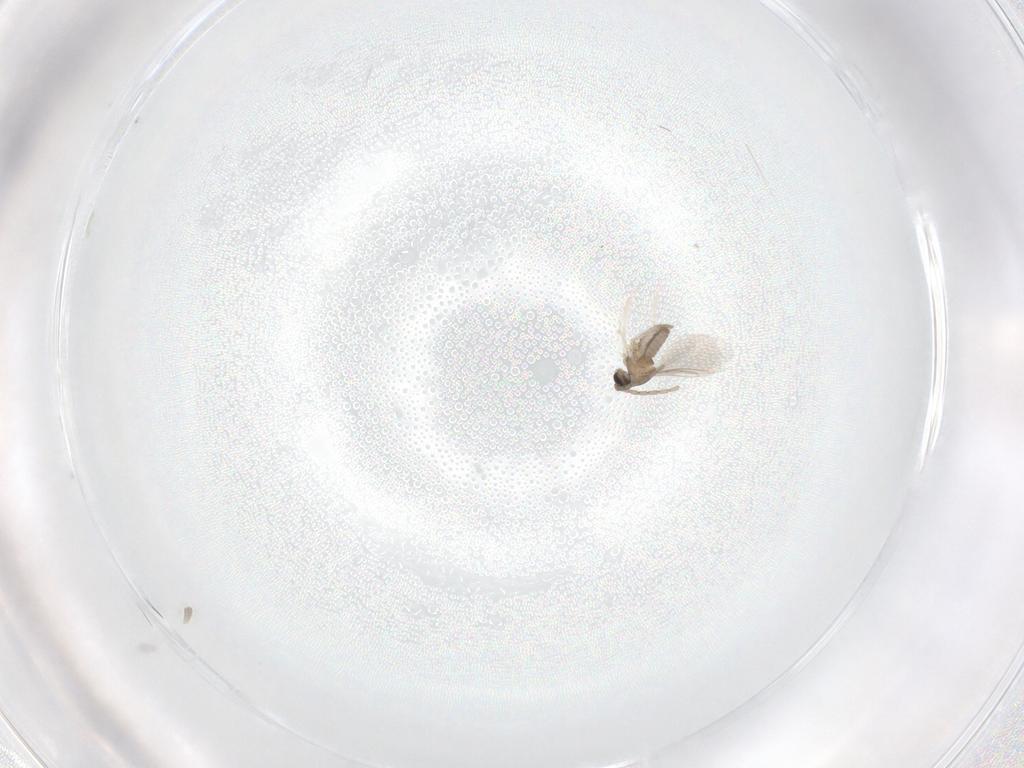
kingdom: Animalia
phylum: Arthropoda
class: Insecta
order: Diptera
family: Cecidomyiidae
